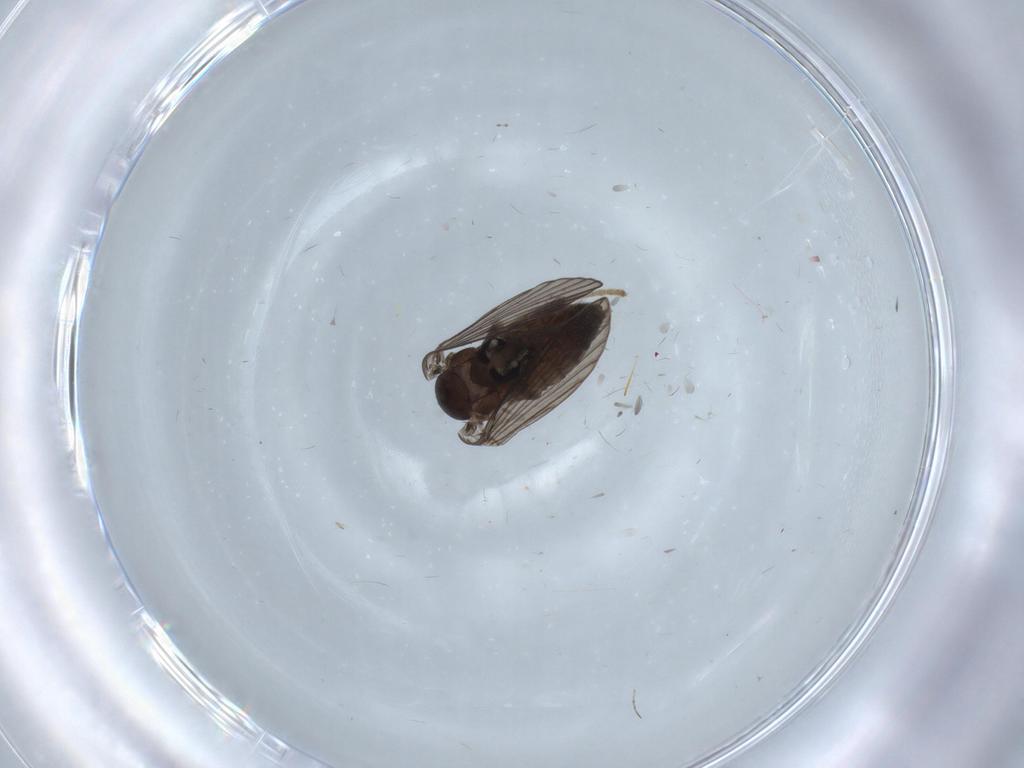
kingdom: Animalia
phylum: Arthropoda
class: Insecta
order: Diptera
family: Psychodidae
